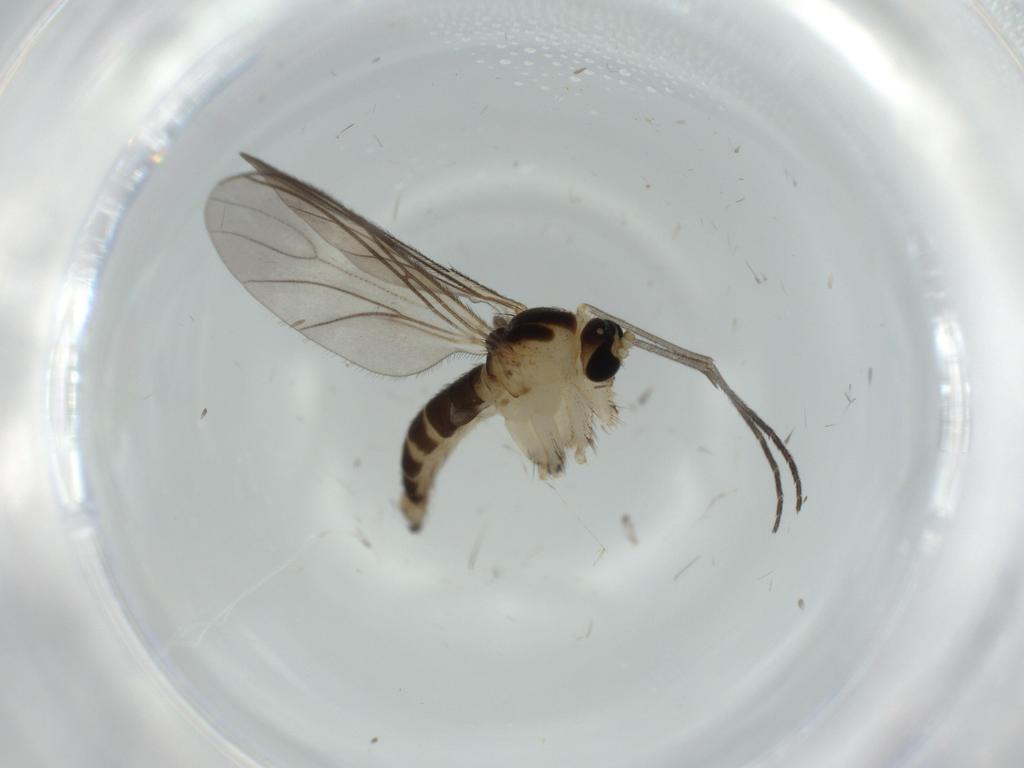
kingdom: Animalia
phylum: Arthropoda
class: Insecta
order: Diptera
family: Sciaridae
